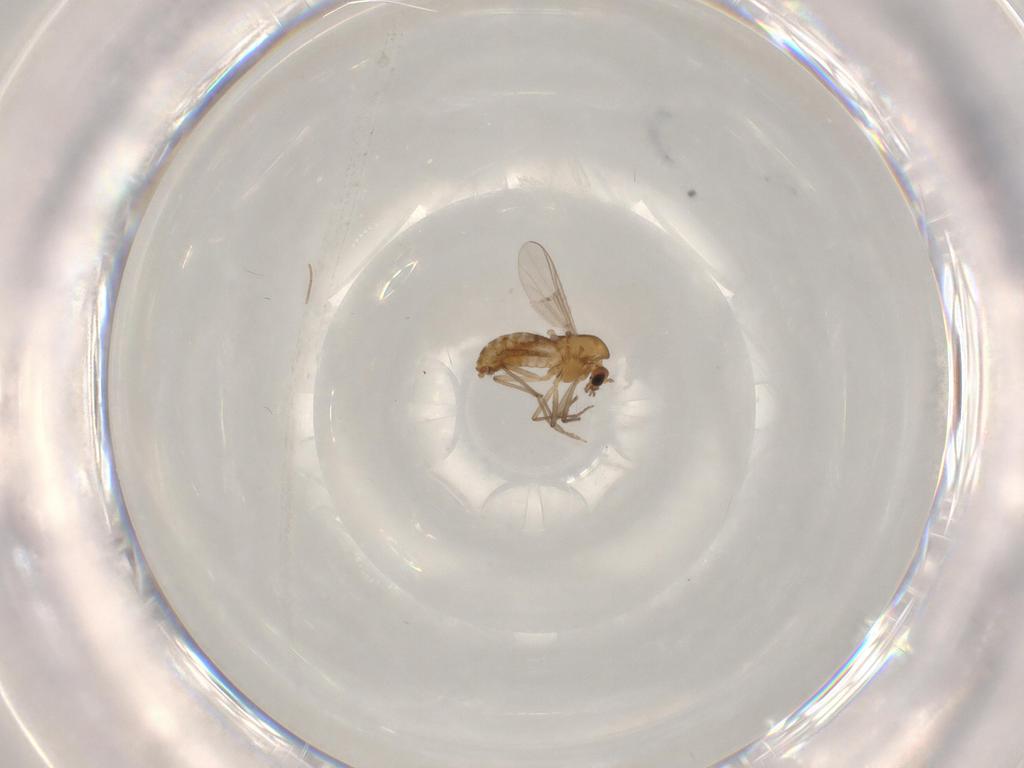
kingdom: Animalia
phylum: Arthropoda
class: Insecta
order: Diptera
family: Chironomidae
